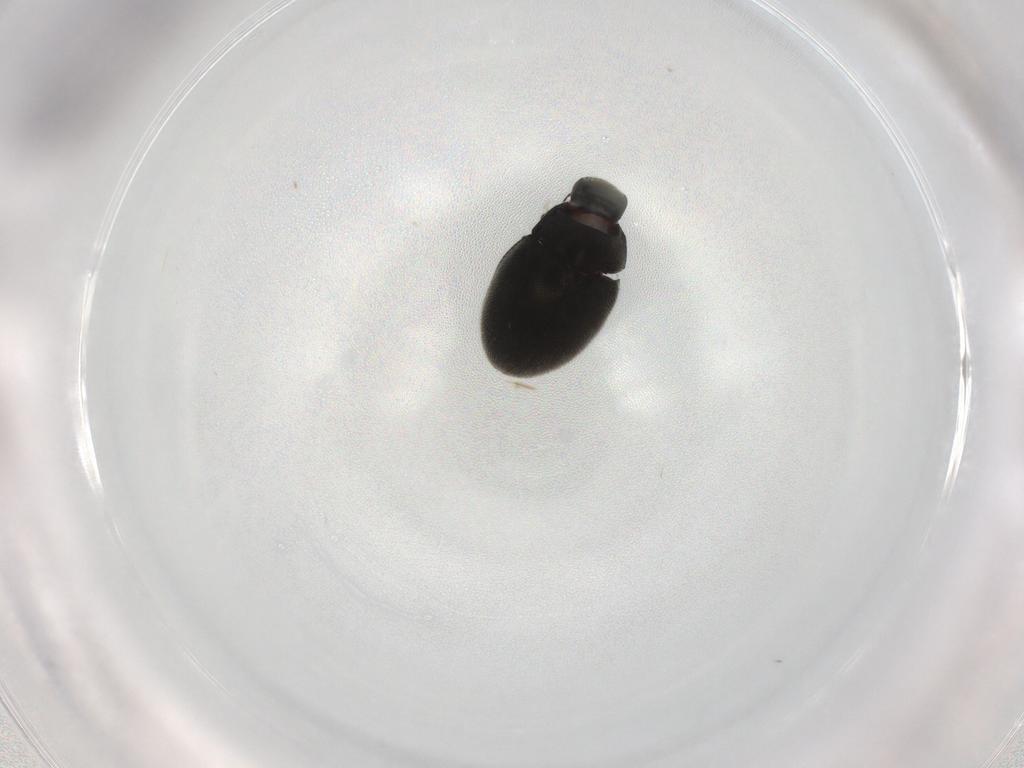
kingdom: Animalia
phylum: Arthropoda
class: Insecta
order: Coleoptera
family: Limnichidae
